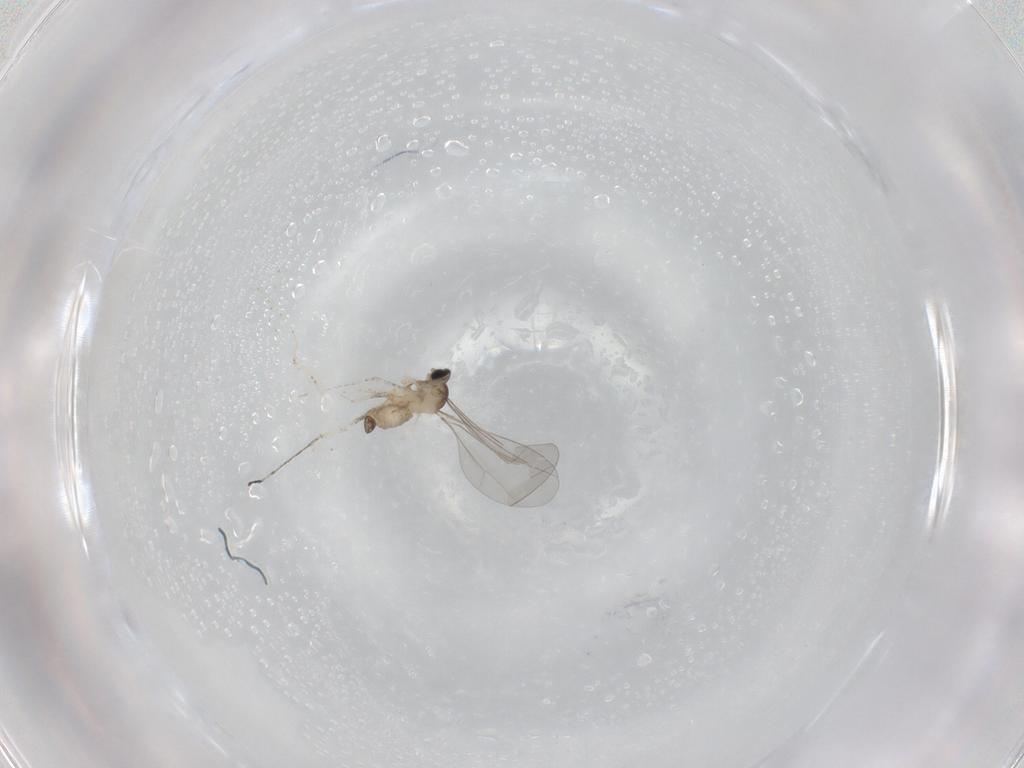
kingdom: Animalia
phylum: Arthropoda
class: Insecta
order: Diptera
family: Cecidomyiidae
